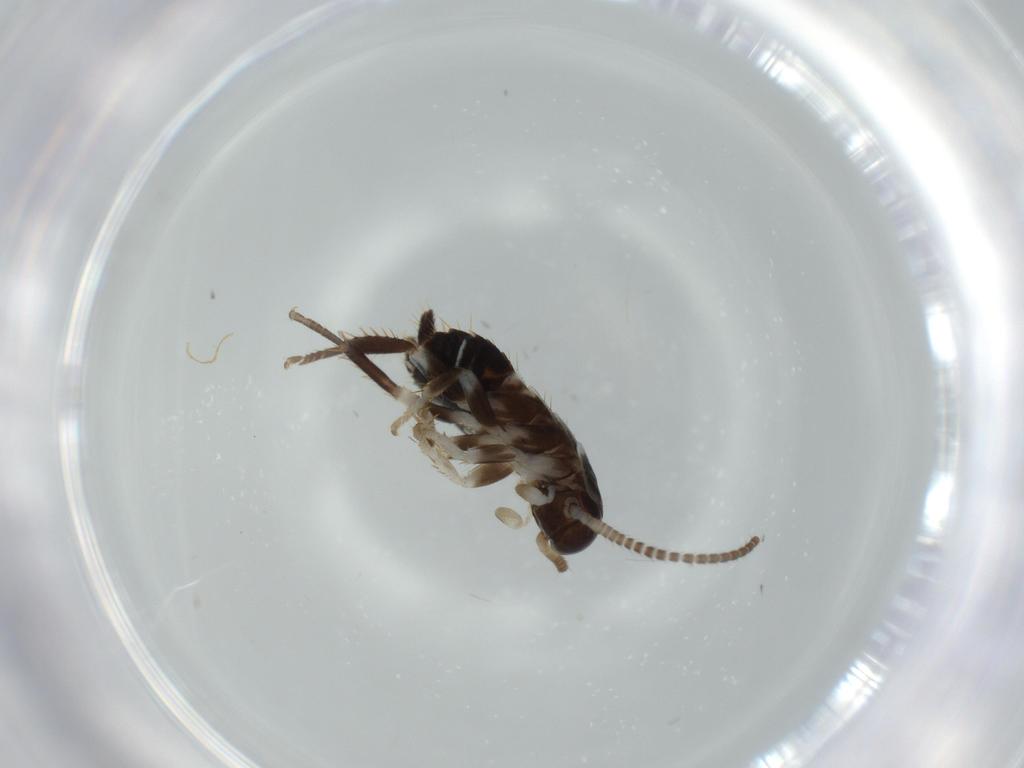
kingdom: Animalia
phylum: Arthropoda
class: Insecta
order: Blattodea
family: Ectobiidae
